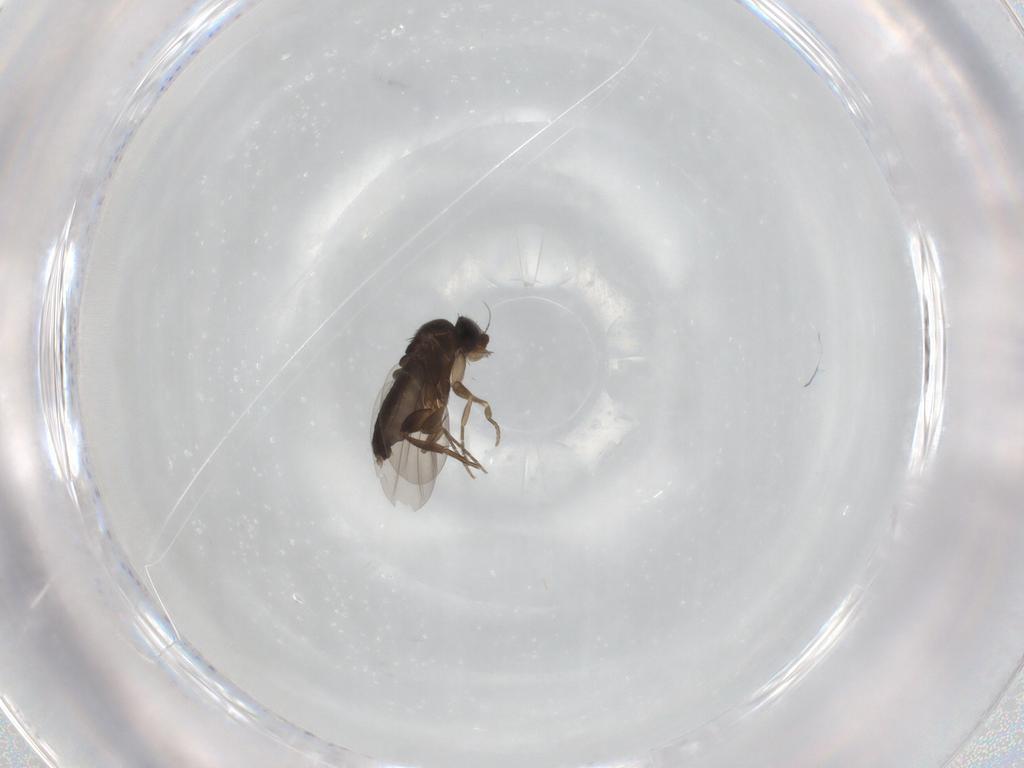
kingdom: Animalia
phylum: Arthropoda
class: Insecta
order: Diptera
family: Phoridae
